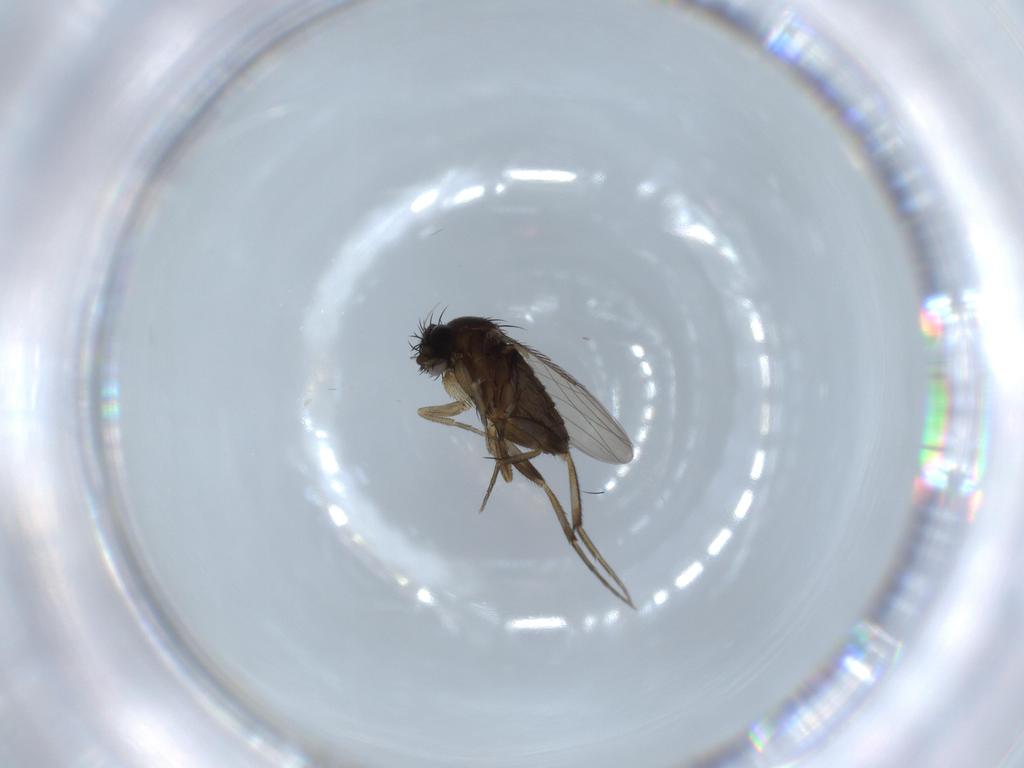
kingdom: Animalia
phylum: Arthropoda
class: Insecta
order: Diptera
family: Phoridae
